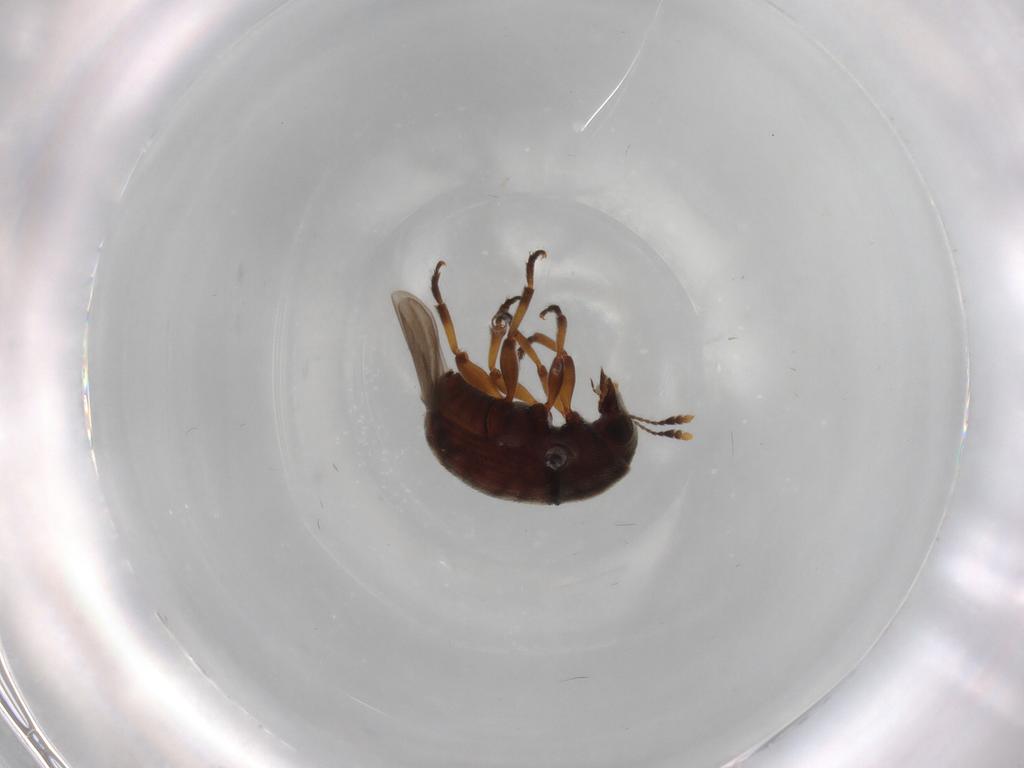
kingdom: Animalia
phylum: Arthropoda
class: Insecta
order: Coleoptera
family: Anthribidae
